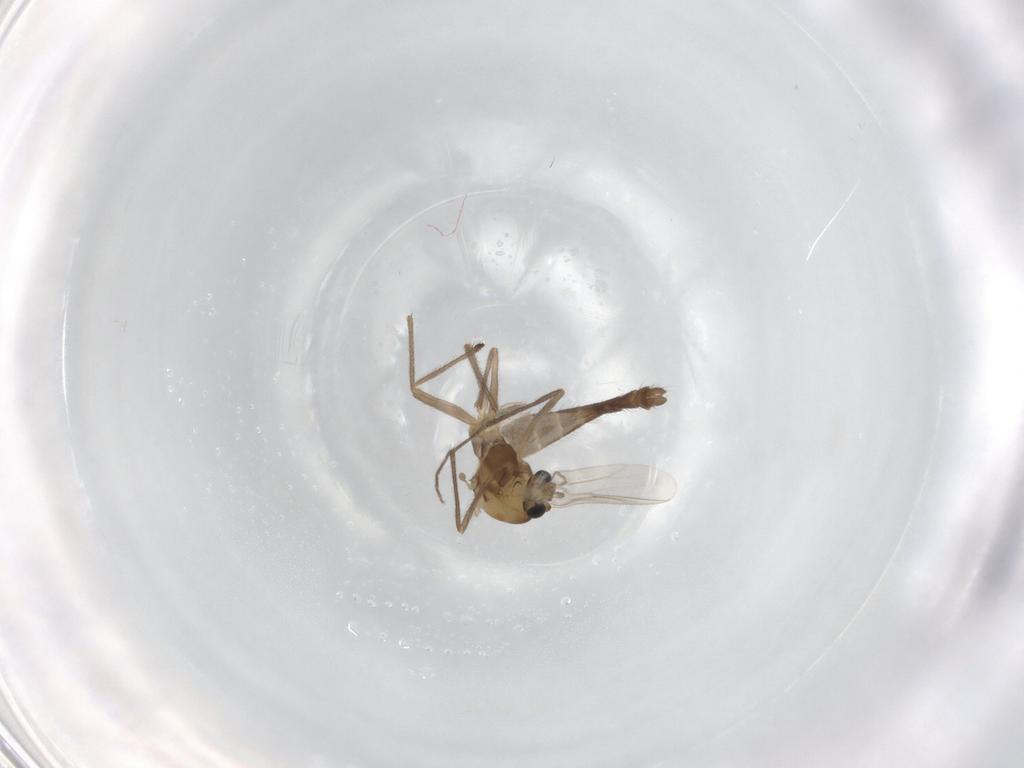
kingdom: Animalia
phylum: Arthropoda
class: Insecta
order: Diptera
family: Chironomidae
